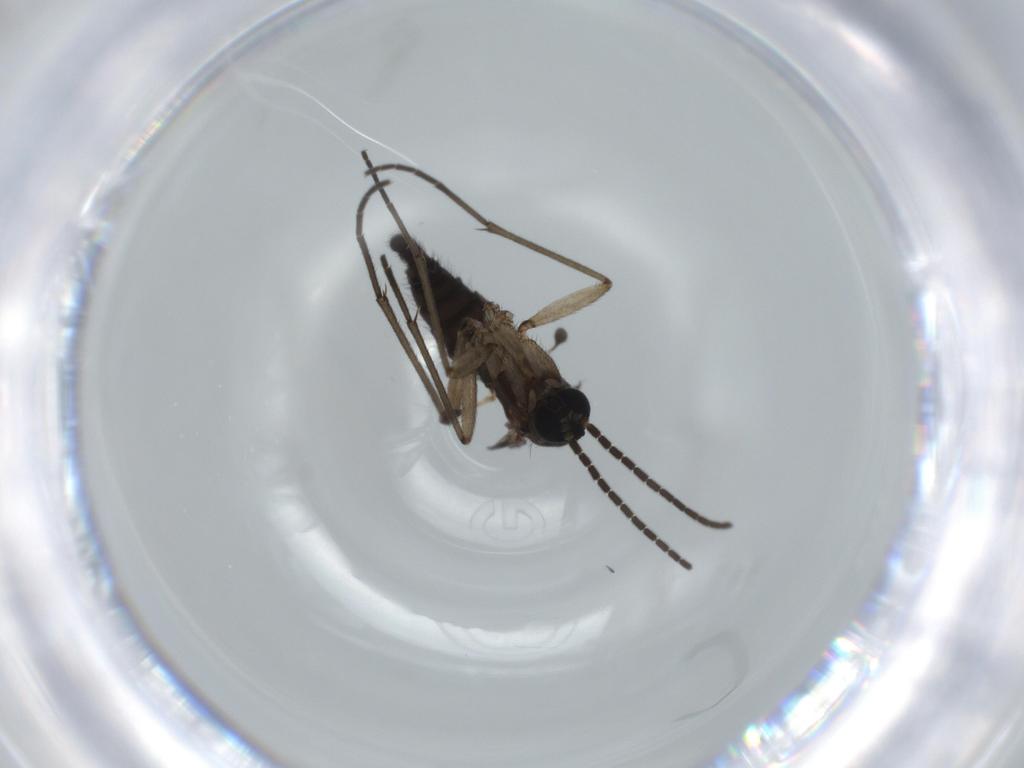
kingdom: Animalia
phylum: Arthropoda
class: Insecta
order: Diptera
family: Sciaridae
